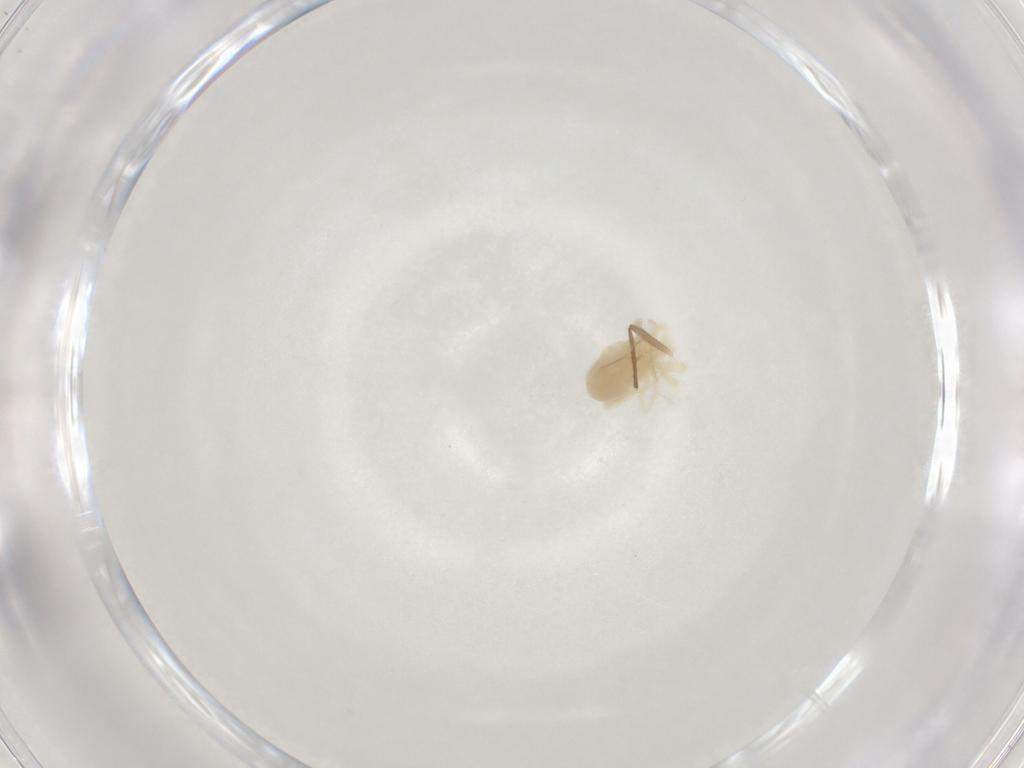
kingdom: Animalia
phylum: Arthropoda
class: Arachnida
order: Trombidiformes
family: Anystidae
